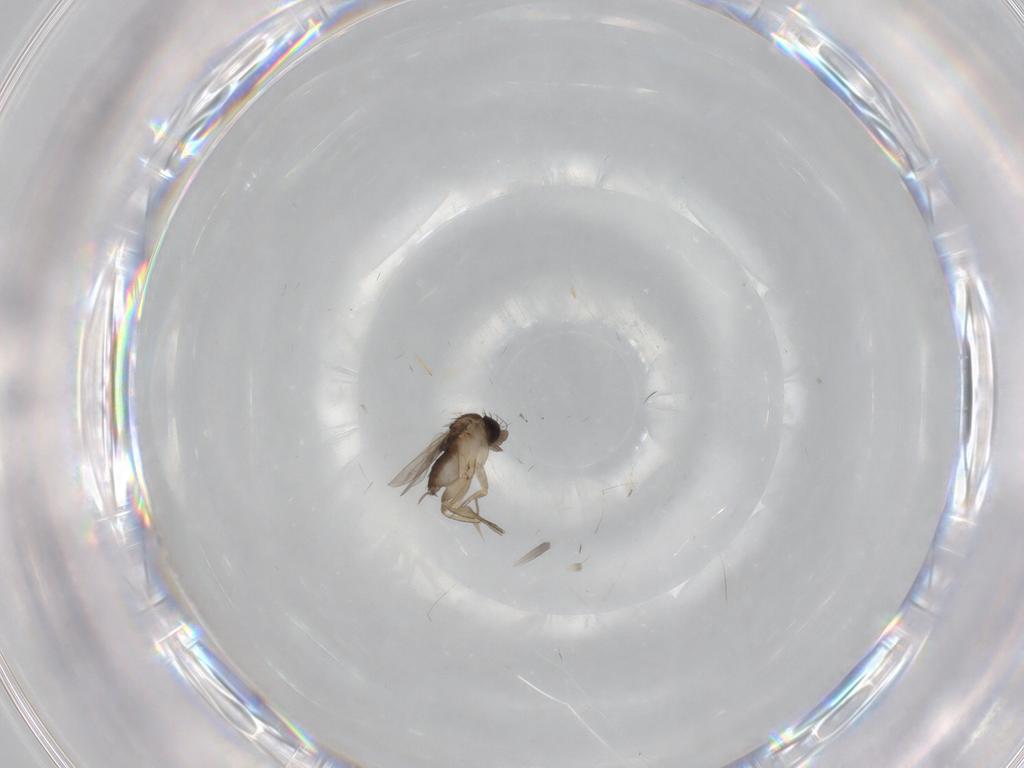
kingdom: Animalia
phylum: Arthropoda
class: Insecta
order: Diptera
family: Phoridae
